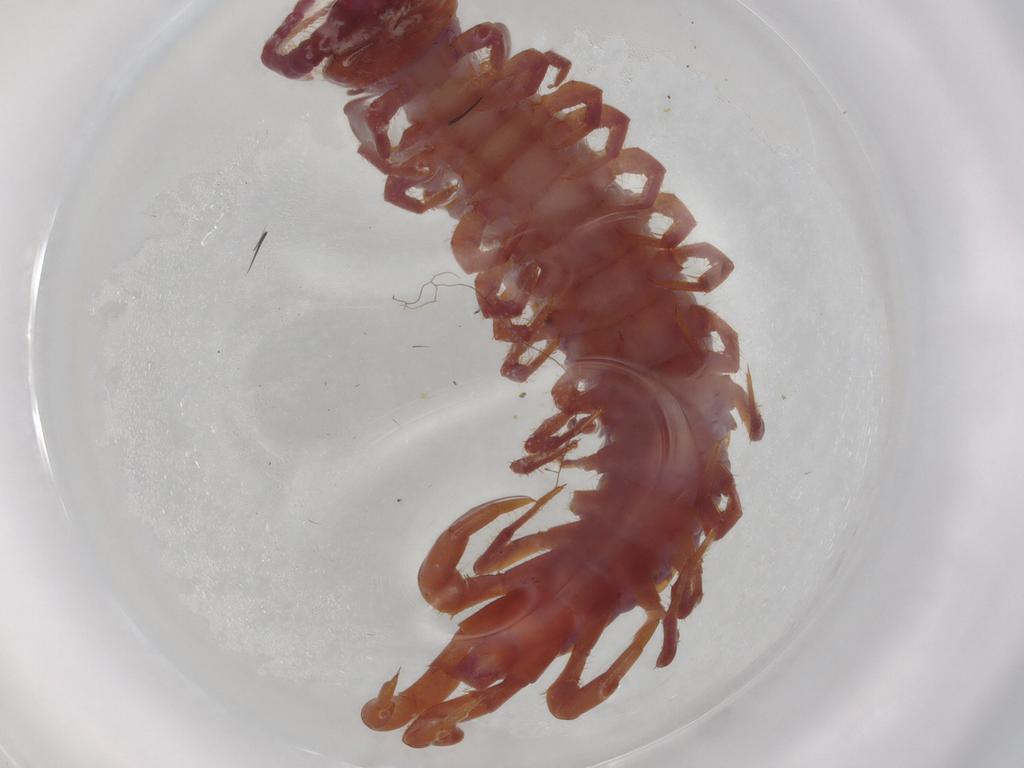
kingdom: Animalia
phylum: Arthropoda
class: Chilopoda
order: Lithobiomorpha
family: Lithobiidae
